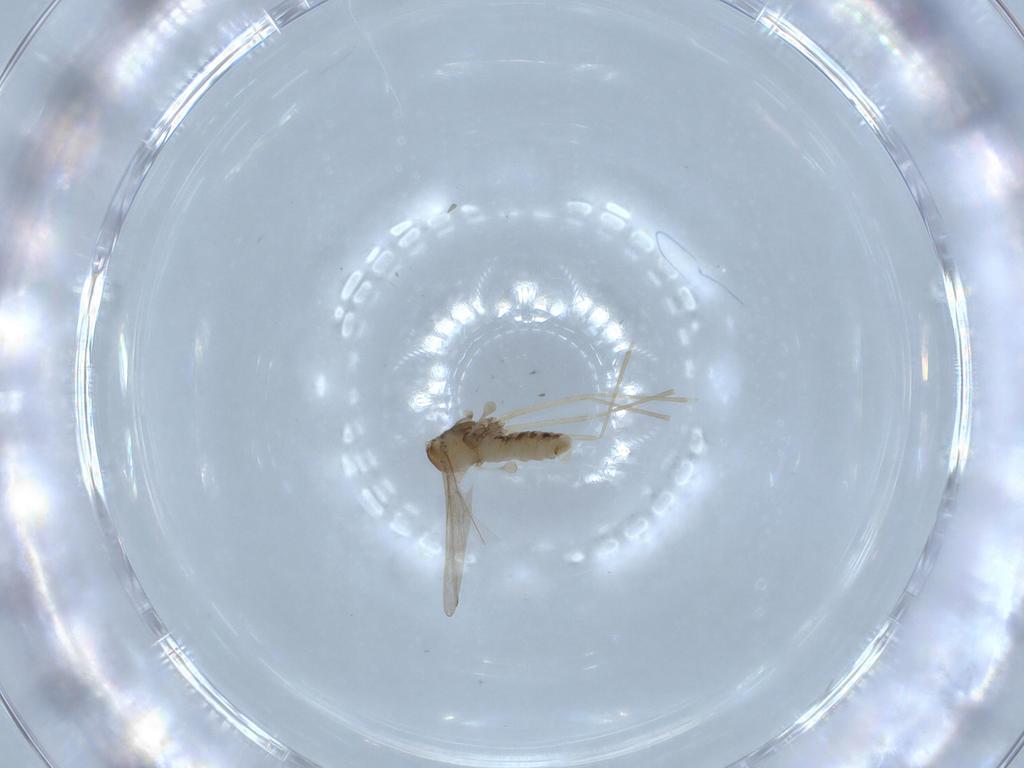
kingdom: Animalia
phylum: Arthropoda
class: Insecta
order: Diptera
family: Cecidomyiidae
